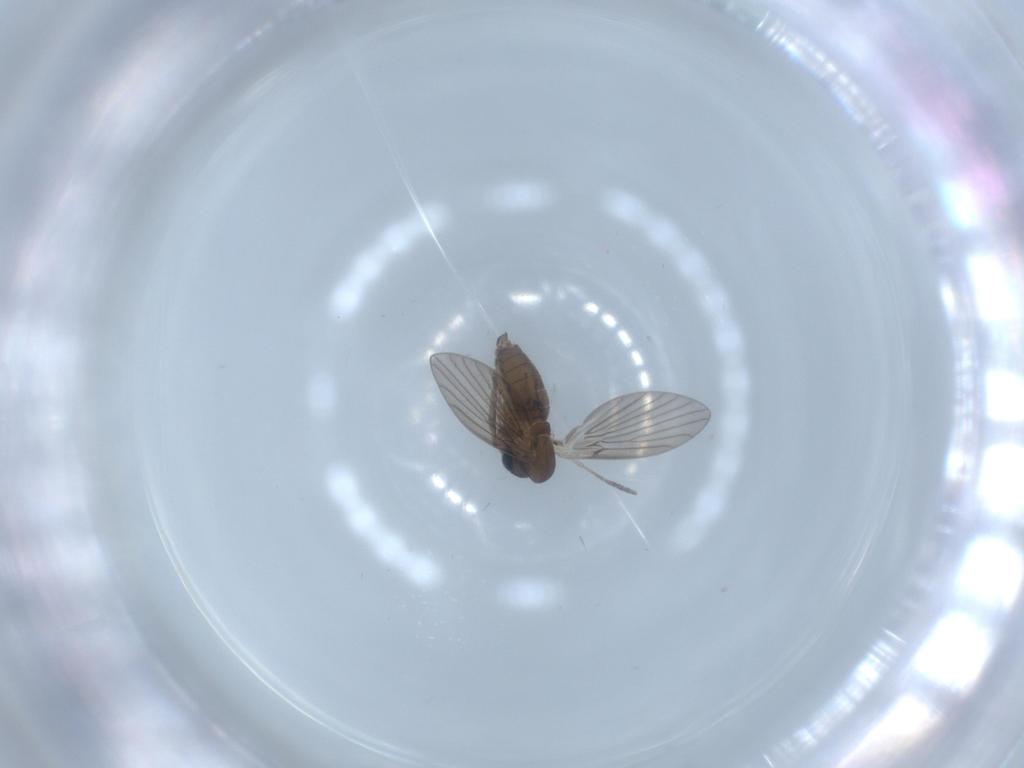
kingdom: Animalia
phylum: Arthropoda
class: Insecta
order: Diptera
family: Psychodidae
